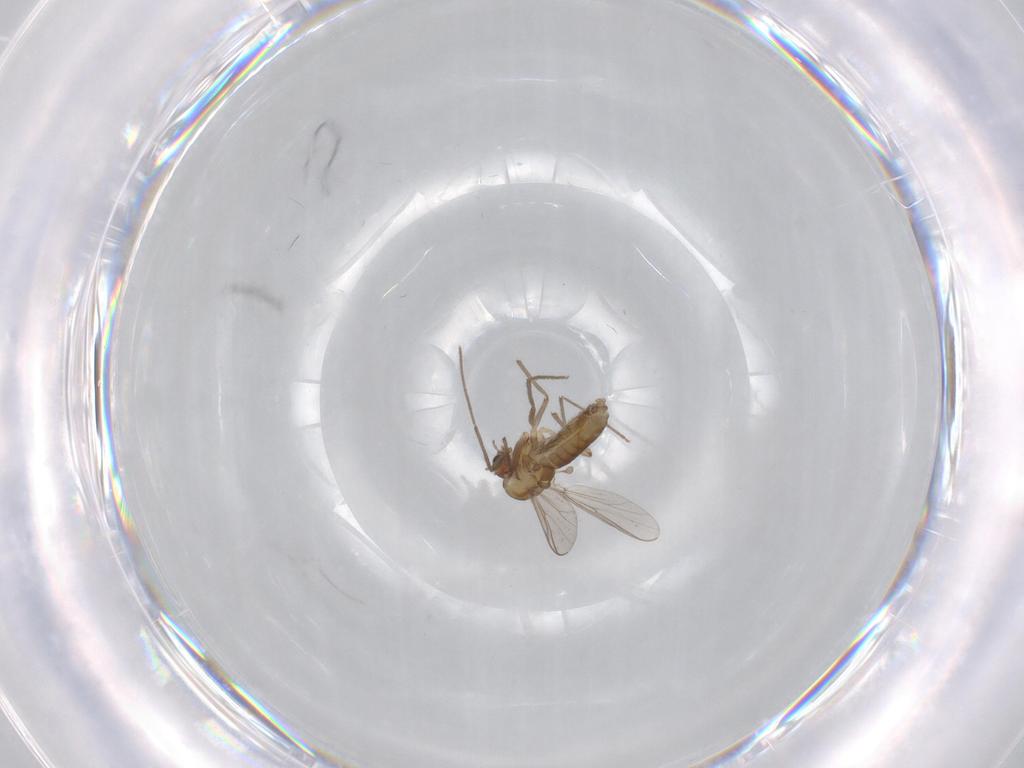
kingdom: Animalia
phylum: Arthropoda
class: Insecta
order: Diptera
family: Chironomidae
